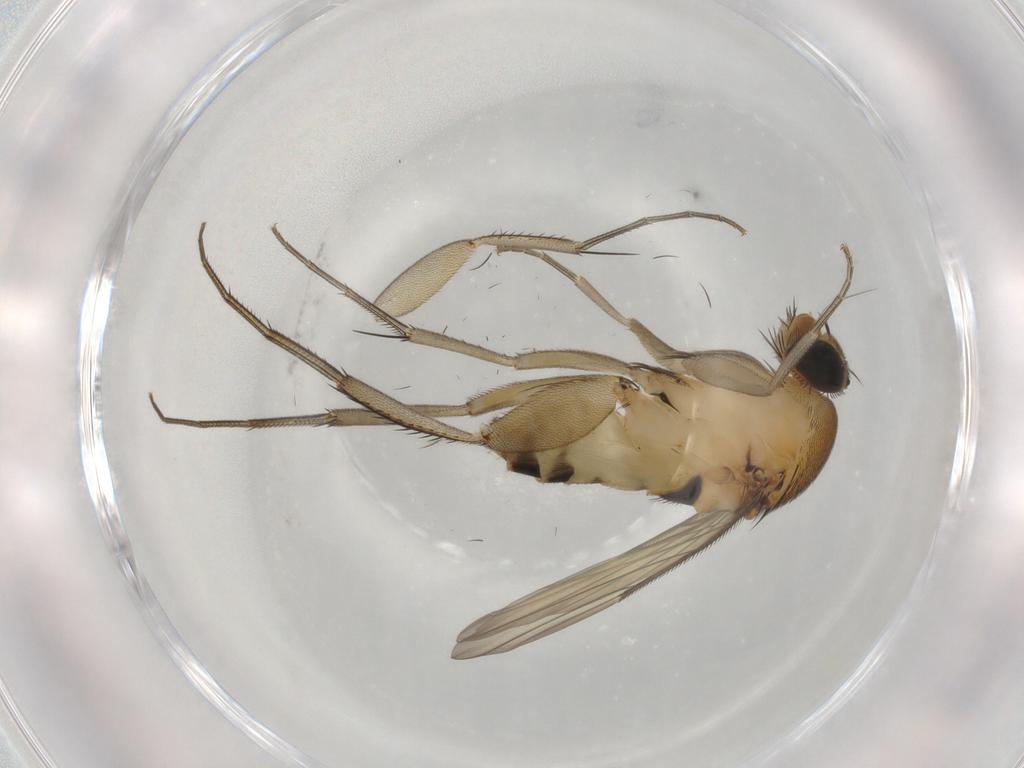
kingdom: Animalia
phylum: Arthropoda
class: Insecta
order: Diptera
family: Phoridae
